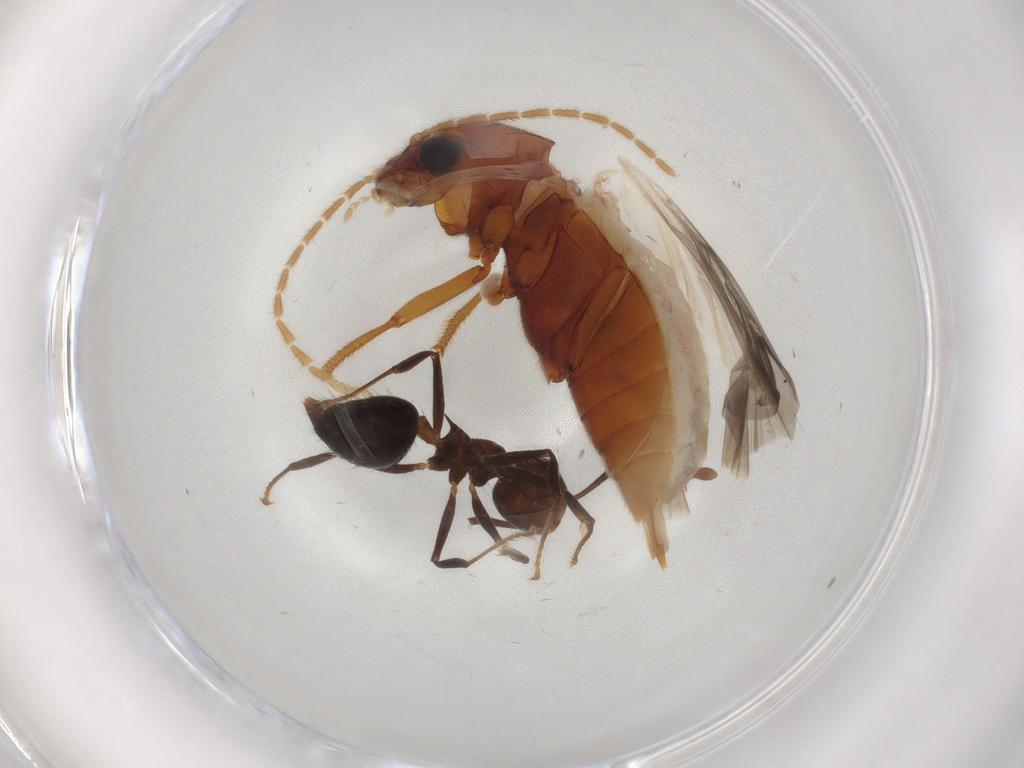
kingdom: Animalia
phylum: Arthropoda
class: Insecta
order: Coleoptera
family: Ptilodactylidae
